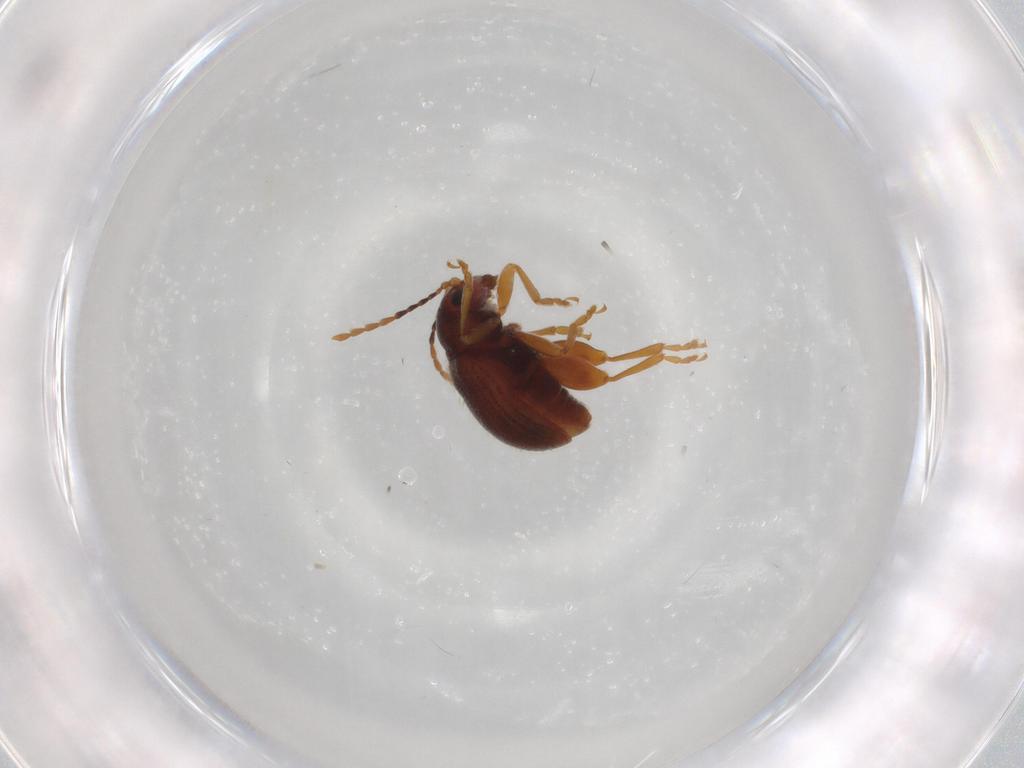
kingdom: Animalia
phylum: Arthropoda
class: Insecta
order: Coleoptera
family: Chrysomelidae
